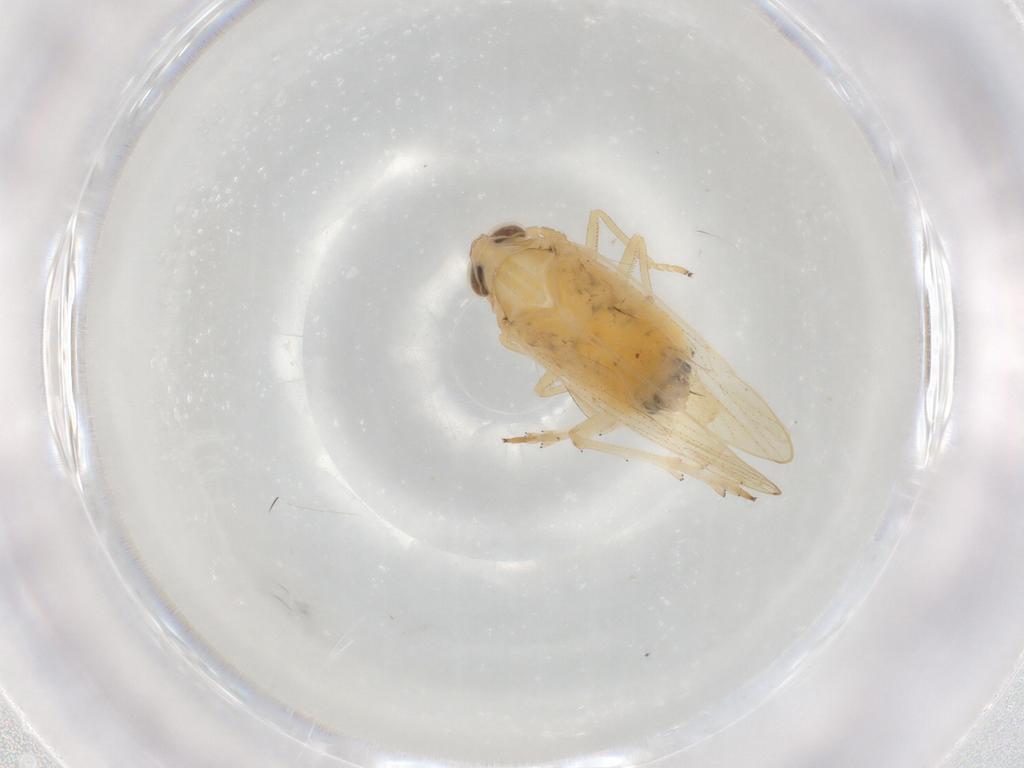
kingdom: Animalia
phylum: Arthropoda
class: Insecta
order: Hemiptera
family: Delphacidae
